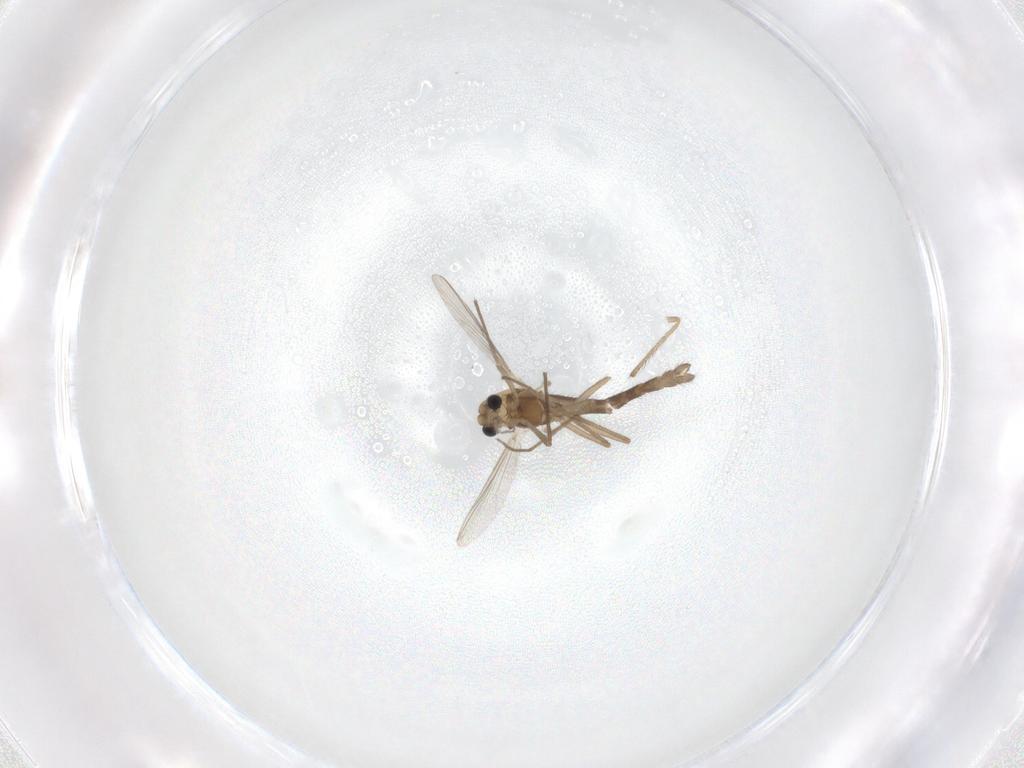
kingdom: Animalia
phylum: Arthropoda
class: Insecta
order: Diptera
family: Chironomidae
